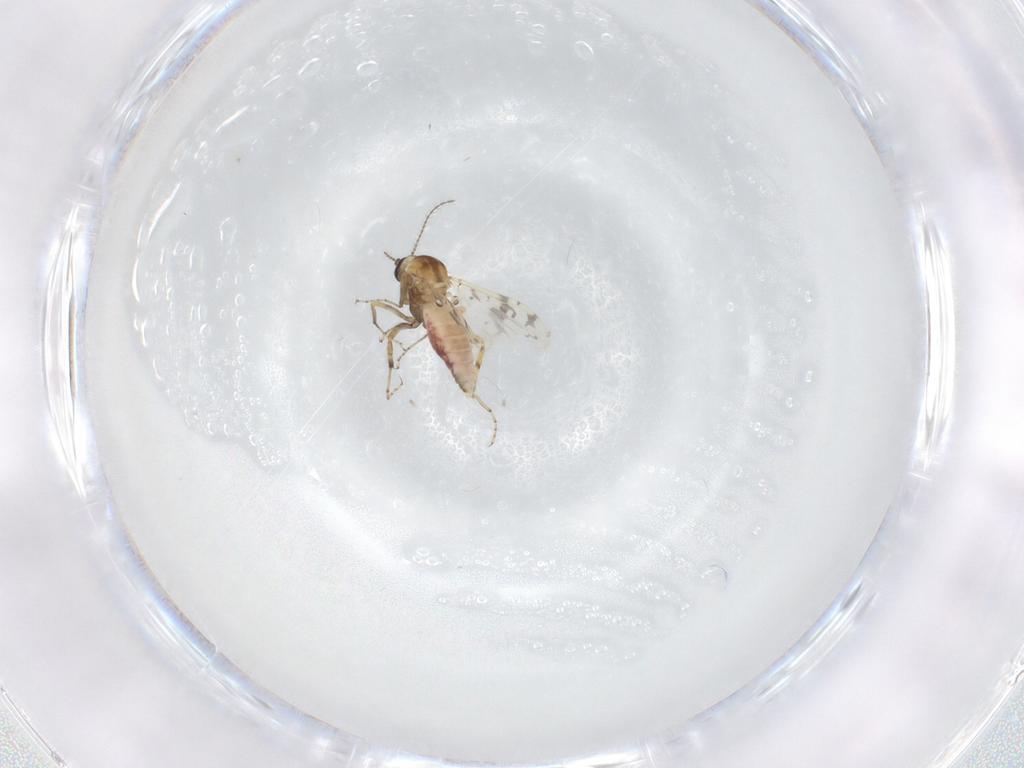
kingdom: Animalia
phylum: Arthropoda
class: Insecta
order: Diptera
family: Ceratopogonidae
